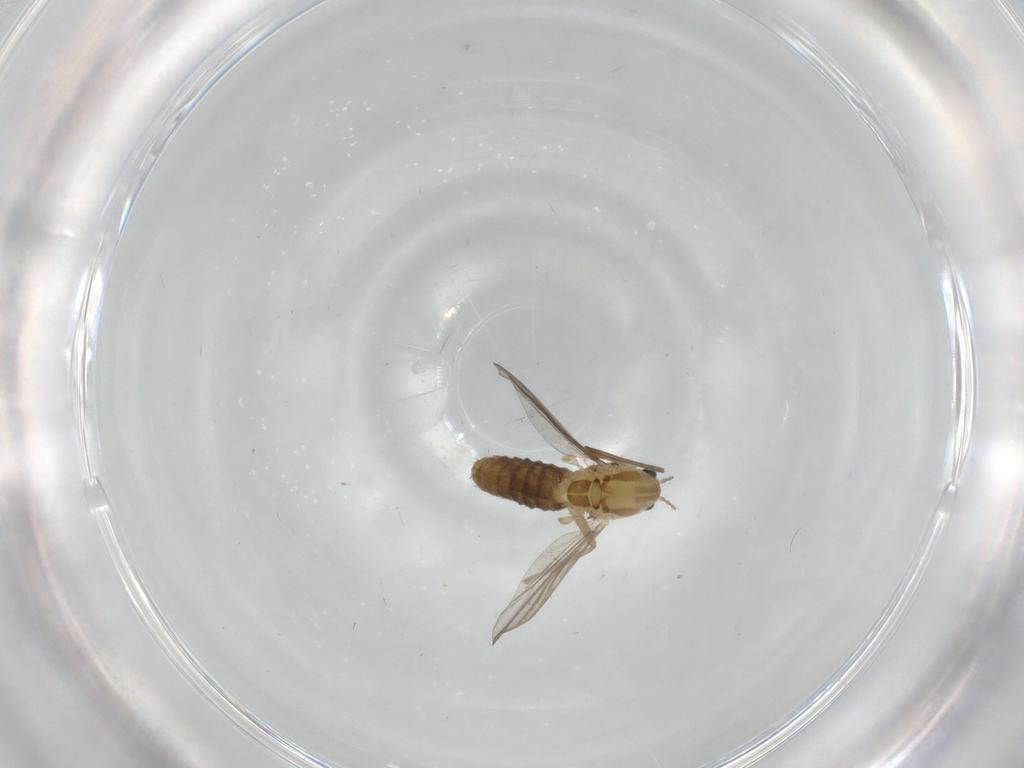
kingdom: Animalia
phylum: Arthropoda
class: Insecta
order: Diptera
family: Chironomidae
